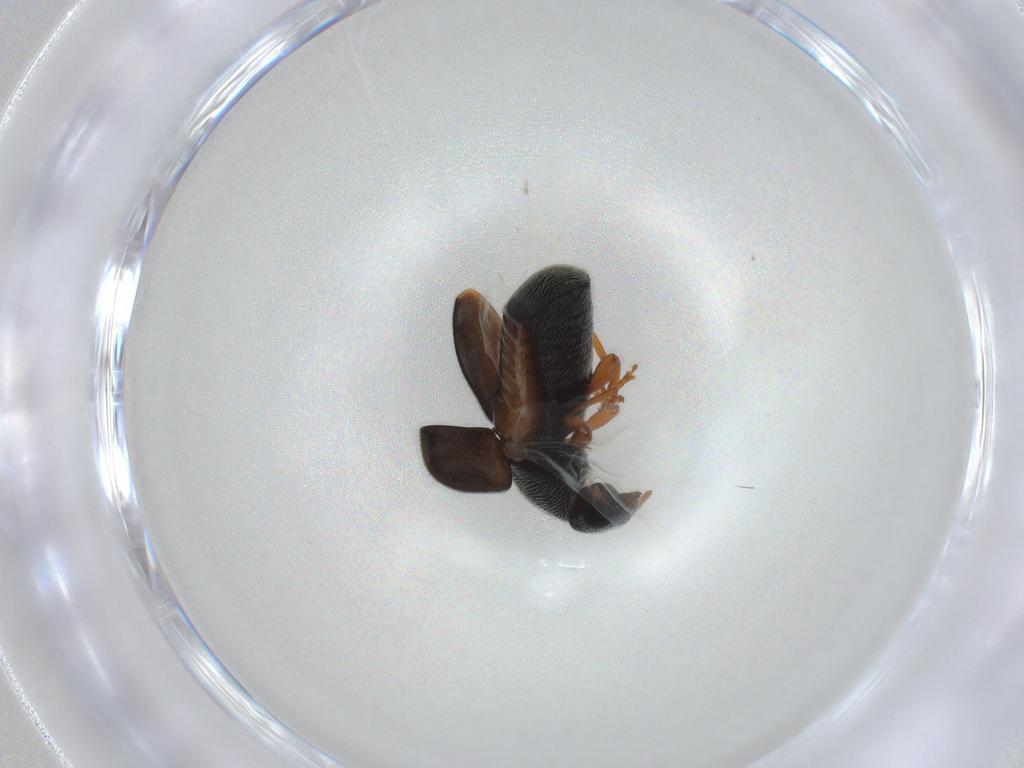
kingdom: Animalia
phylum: Arthropoda
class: Insecta
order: Coleoptera
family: Anthribidae
